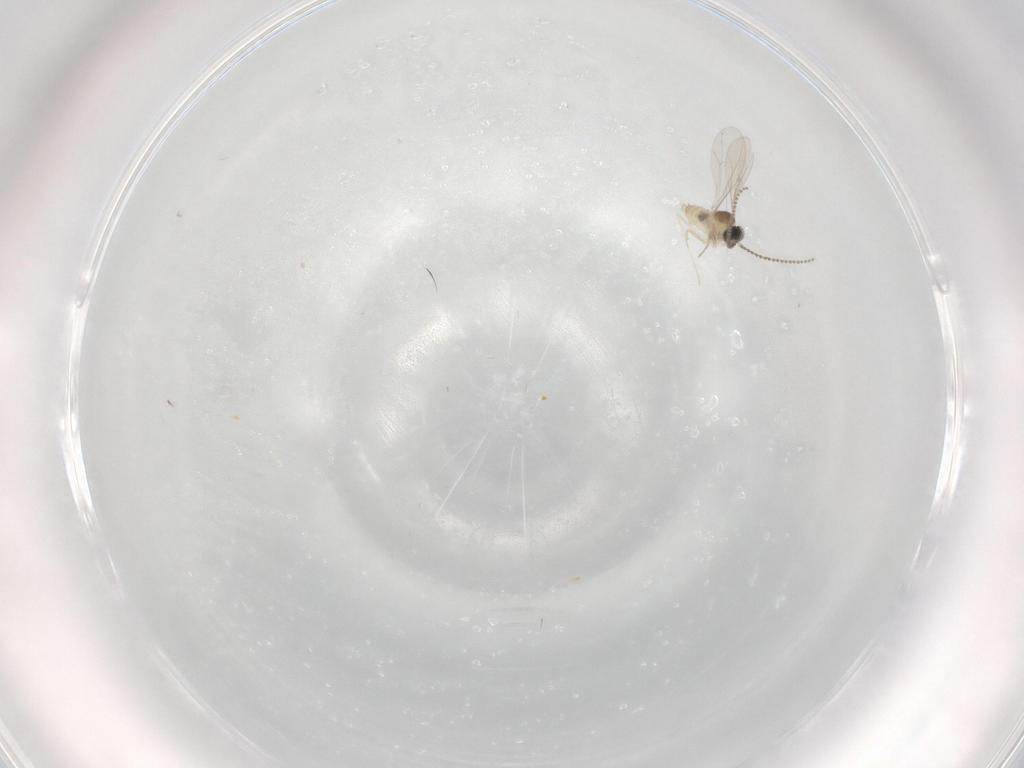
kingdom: Animalia
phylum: Arthropoda
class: Insecta
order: Diptera
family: Cecidomyiidae
